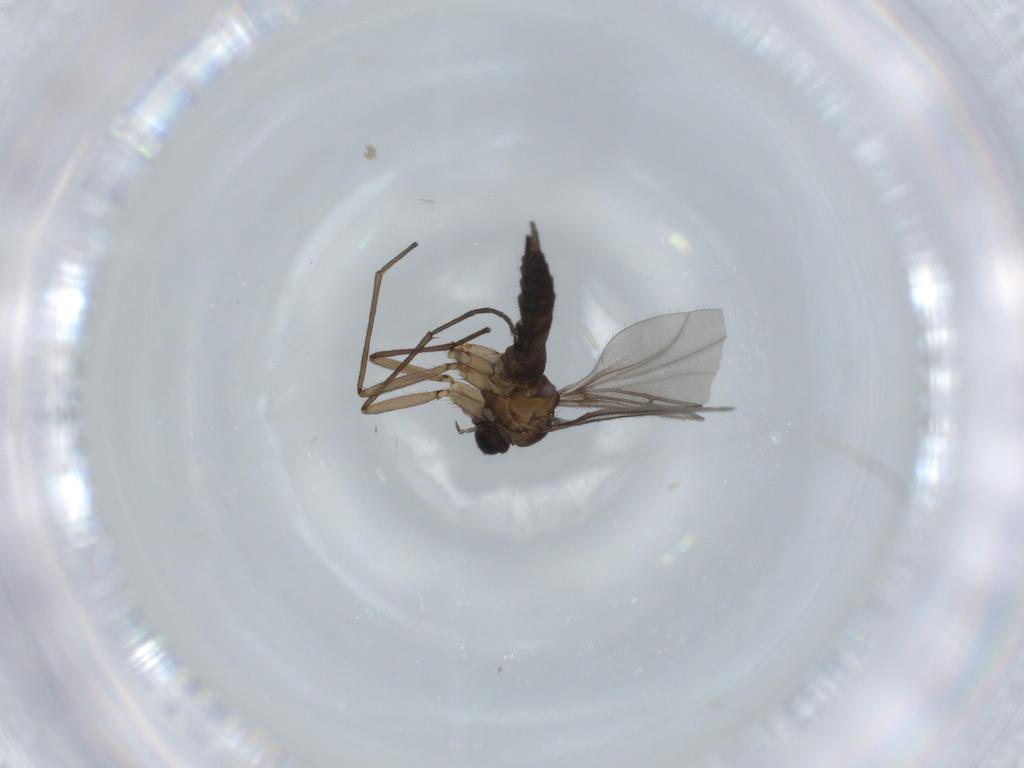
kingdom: Animalia
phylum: Arthropoda
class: Insecta
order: Diptera
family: Sciaridae
